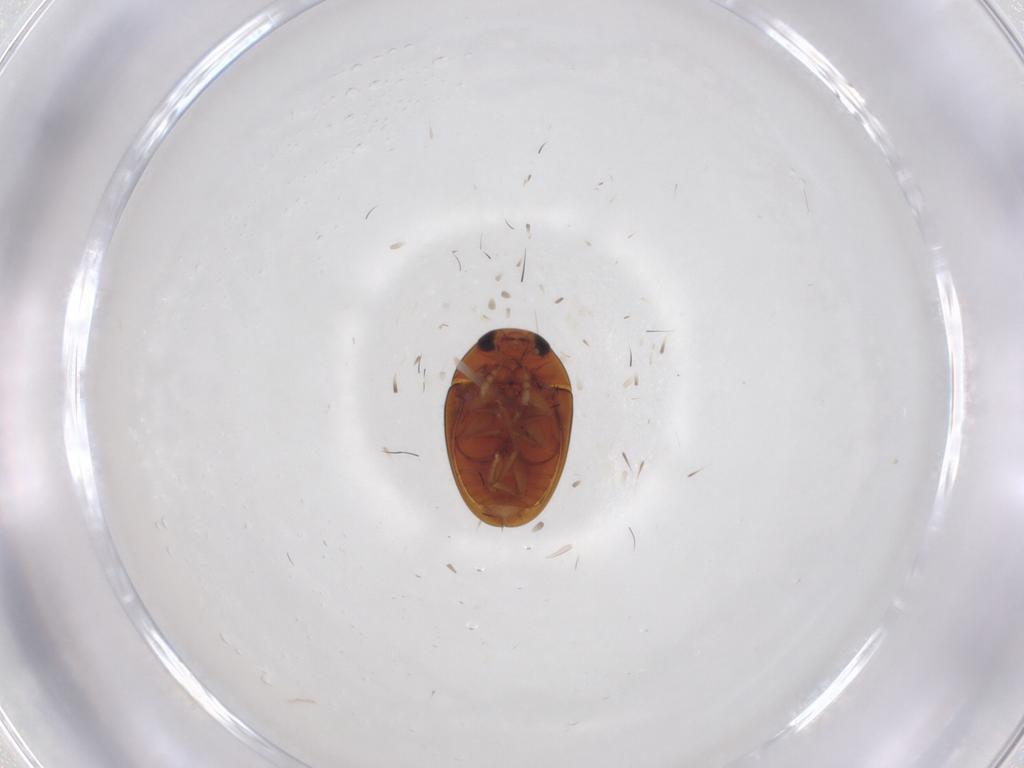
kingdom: Animalia
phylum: Arthropoda
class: Insecta
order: Coleoptera
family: Phalacridae
